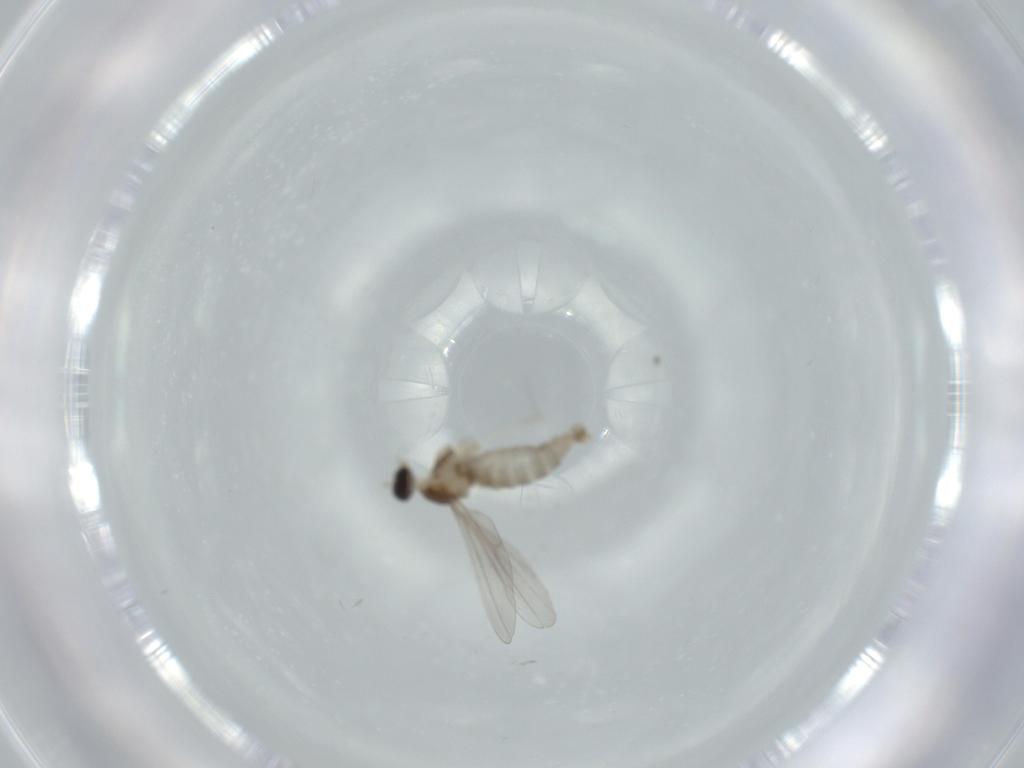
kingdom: Animalia
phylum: Arthropoda
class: Insecta
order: Diptera
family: Cecidomyiidae
